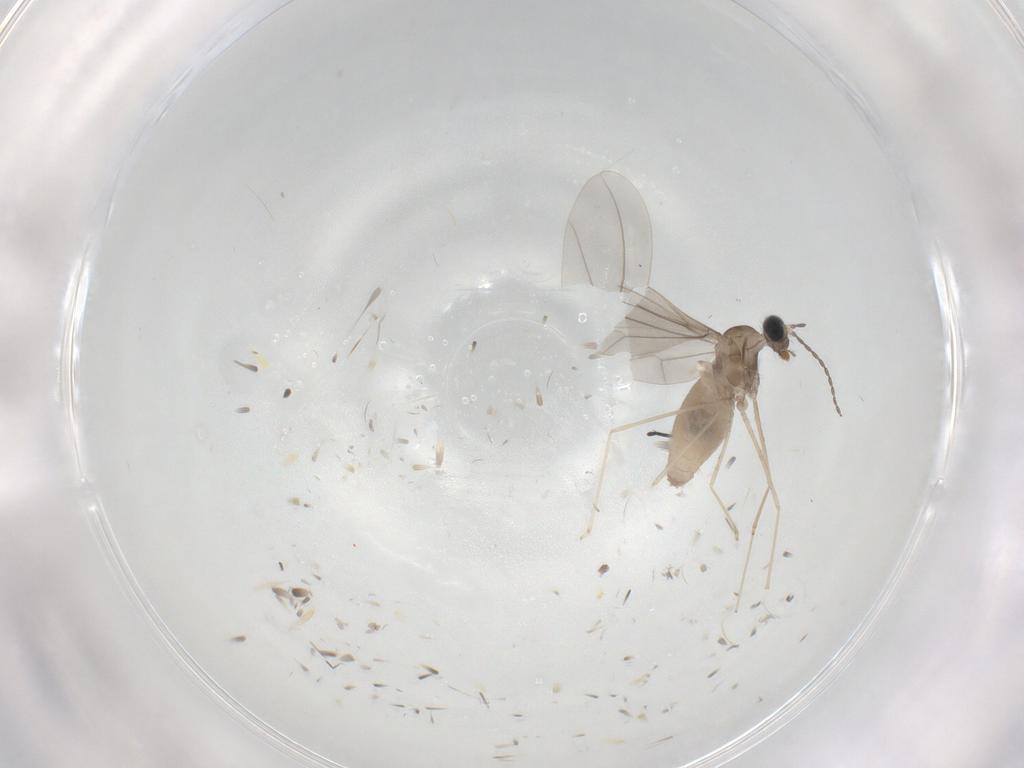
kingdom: Animalia
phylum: Arthropoda
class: Insecta
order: Diptera
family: Cecidomyiidae
